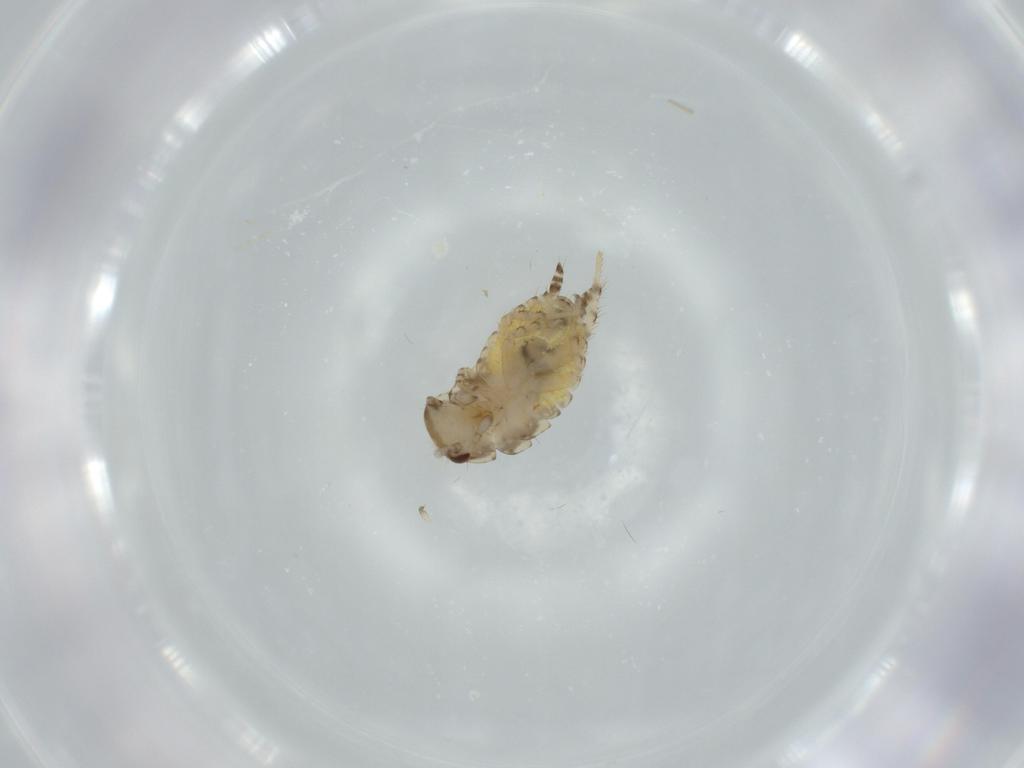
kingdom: Animalia
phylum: Arthropoda
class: Insecta
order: Blattodea
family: Ectobiidae
